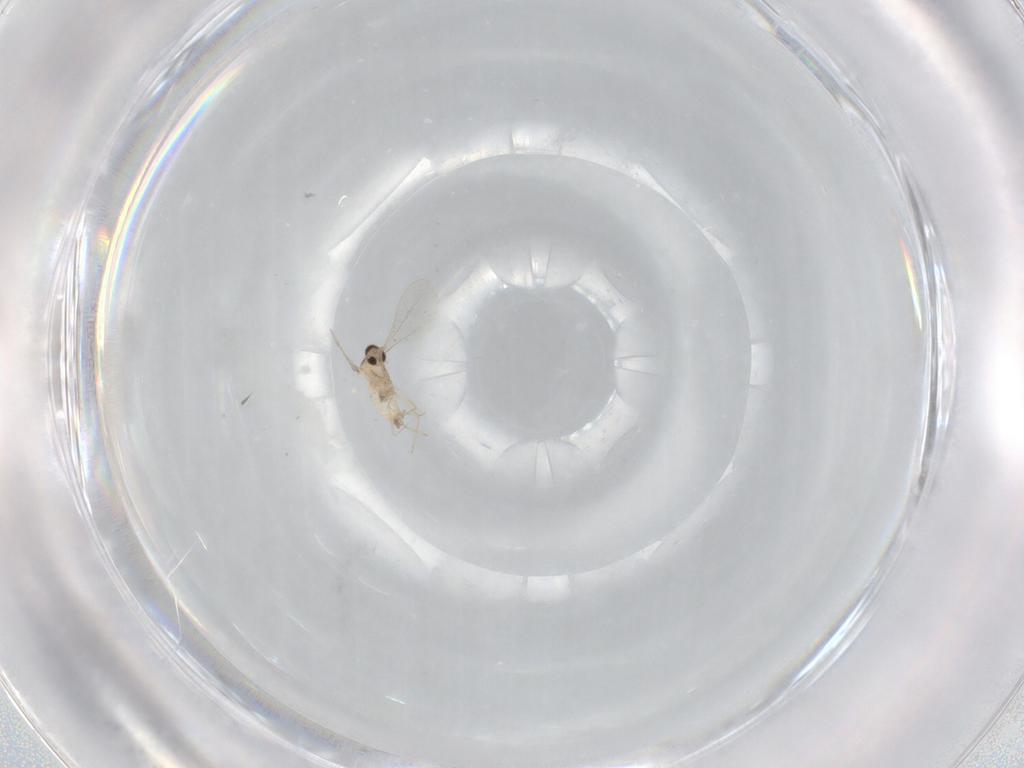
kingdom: Animalia
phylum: Arthropoda
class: Insecta
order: Diptera
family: Cecidomyiidae
